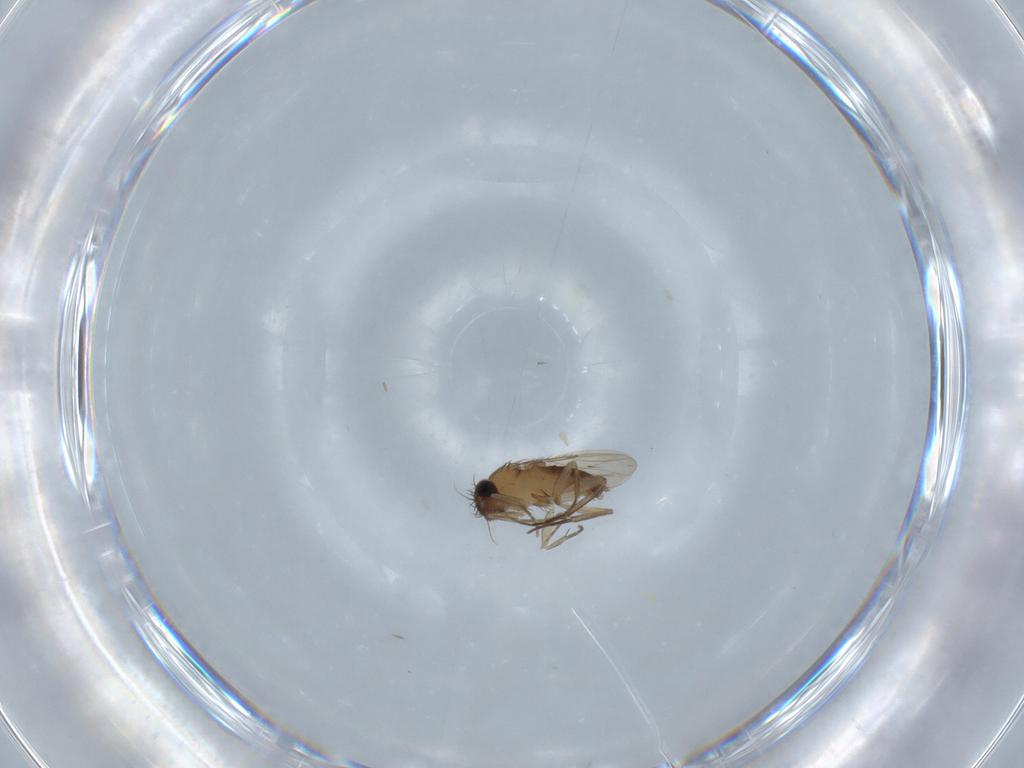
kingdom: Animalia
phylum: Arthropoda
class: Insecta
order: Diptera
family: Phoridae
